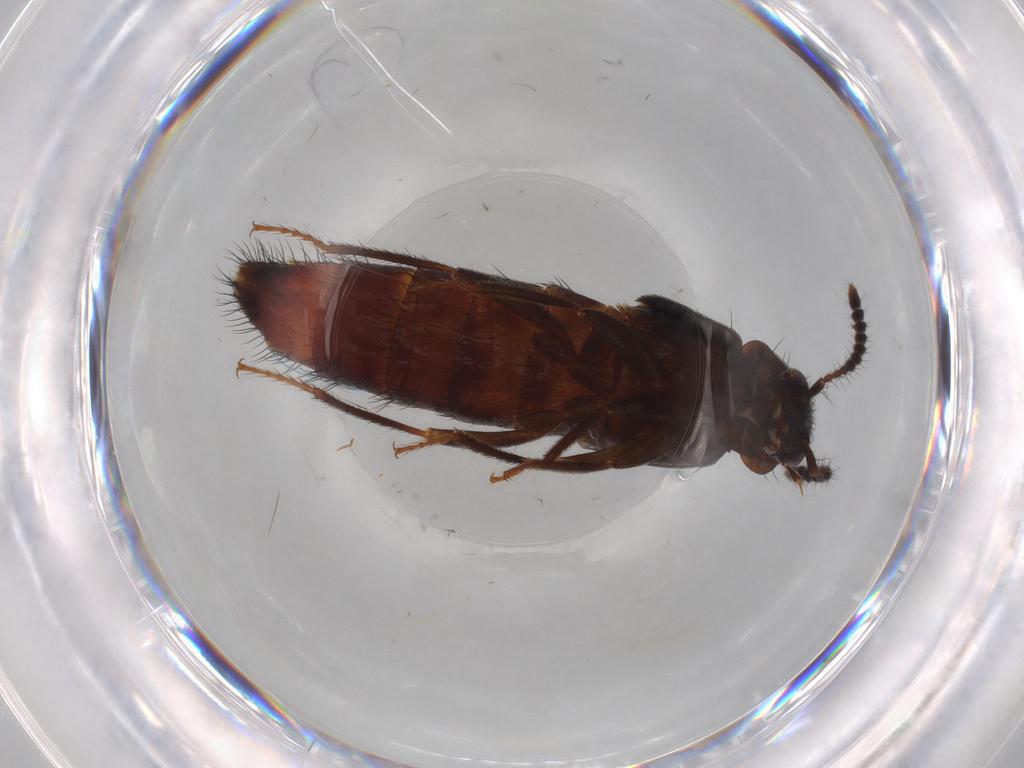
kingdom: Animalia
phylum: Arthropoda
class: Insecta
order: Coleoptera
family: Staphylinidae
